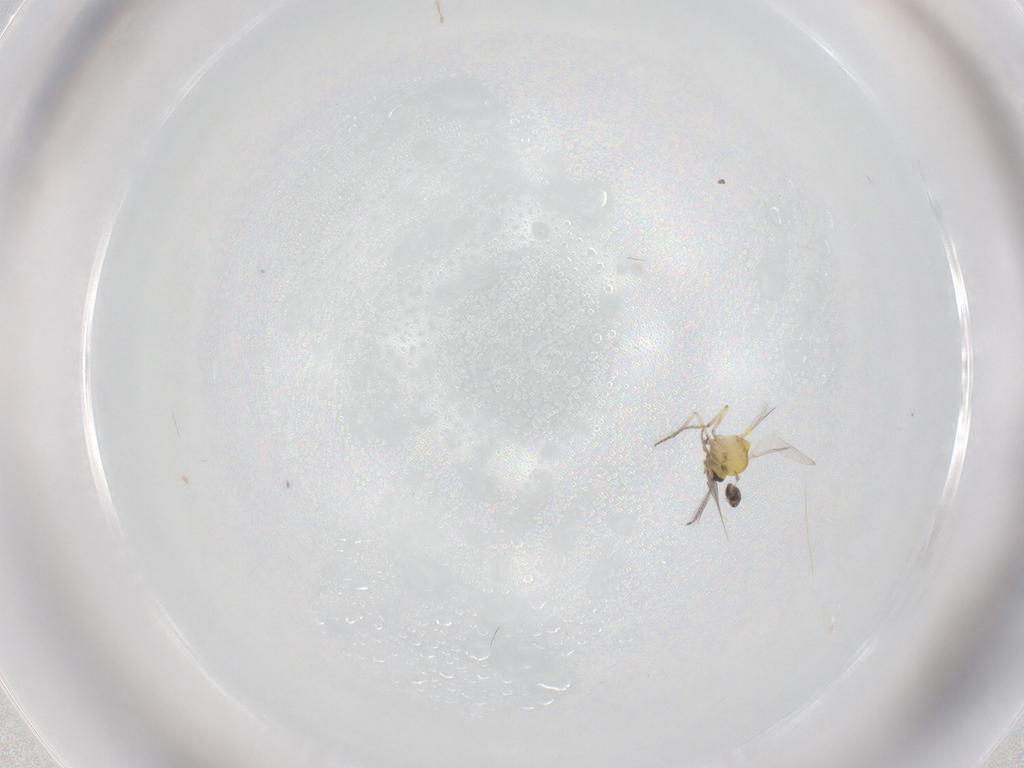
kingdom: Animalia
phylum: Arthropoda
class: Insecta
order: Diptera
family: Ceratopogonidae
